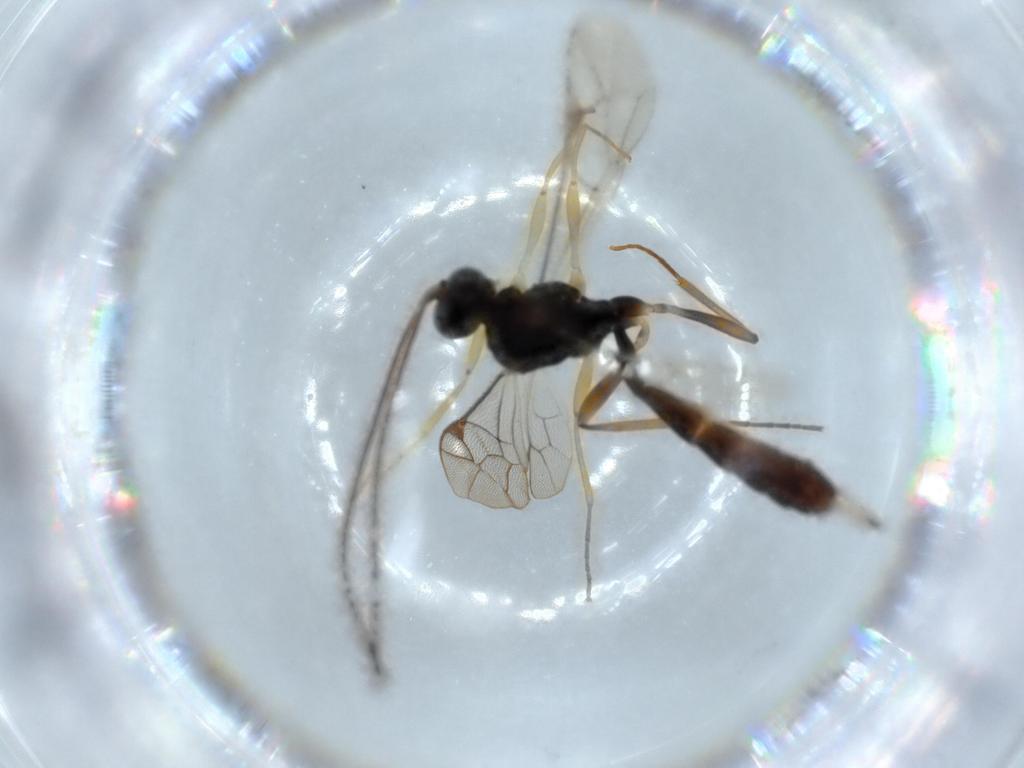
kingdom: Animalia
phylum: Arthropoda
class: Insecta
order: Hymenoptera
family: Ichneumonidae
